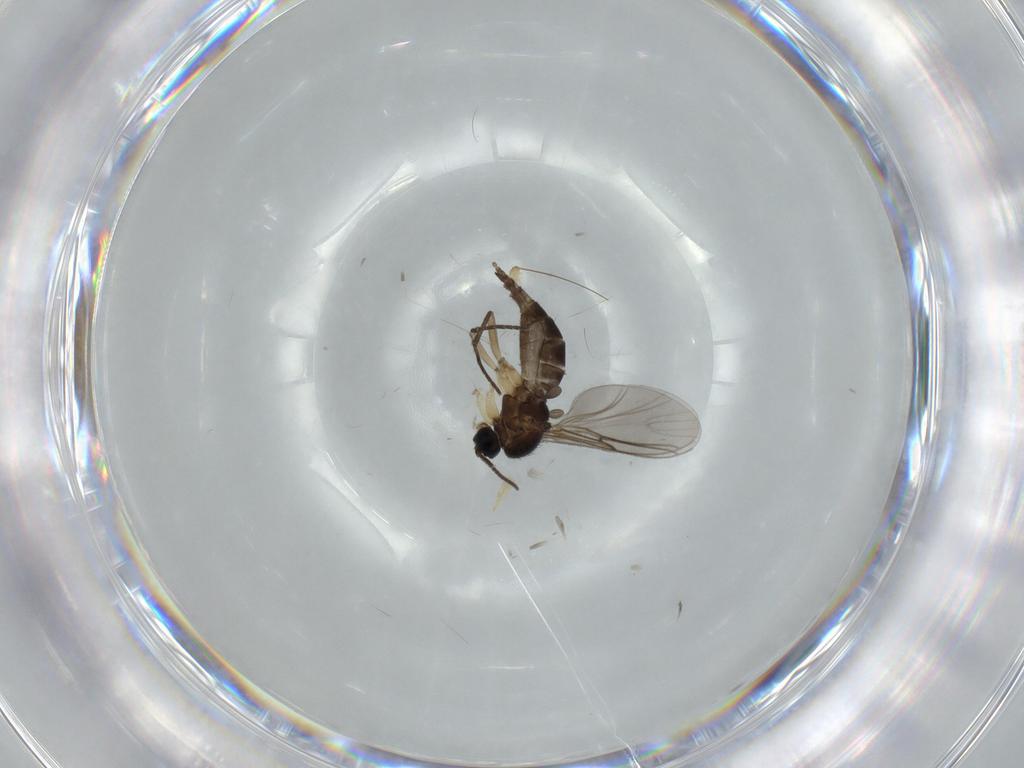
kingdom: Animalia
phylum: Arthropoda
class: Insecta
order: Diptera
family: Sciaridae
